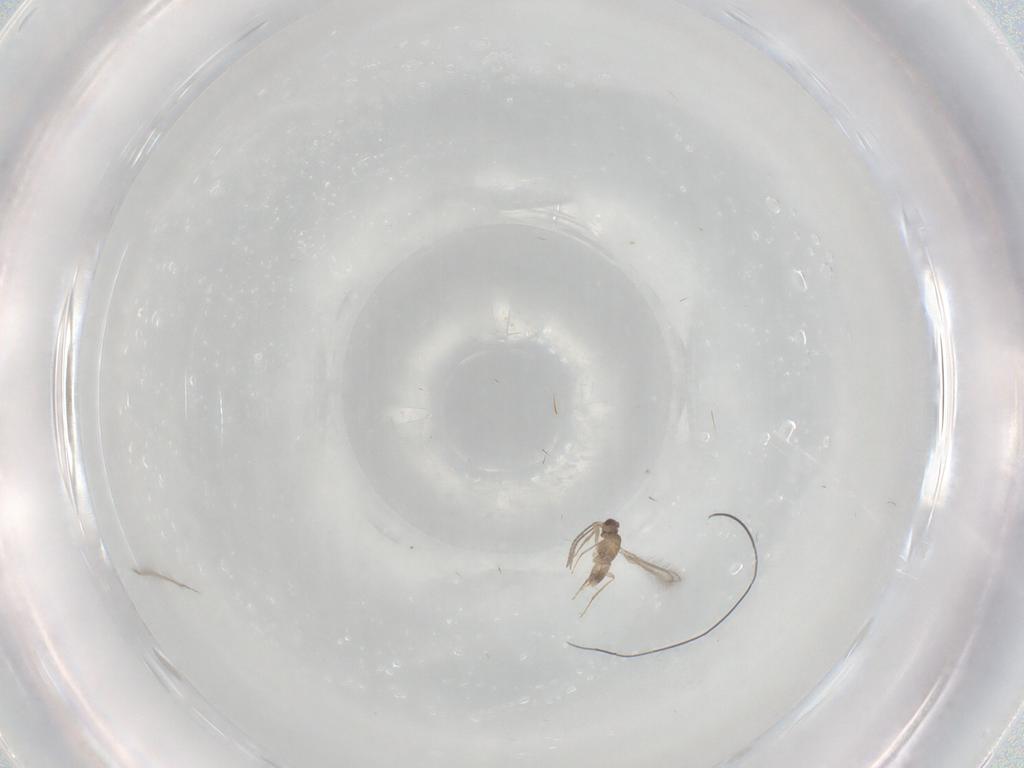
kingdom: Animalia
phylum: Arthropoda
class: Insecta
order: Hymenoptera
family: Mymaridae
